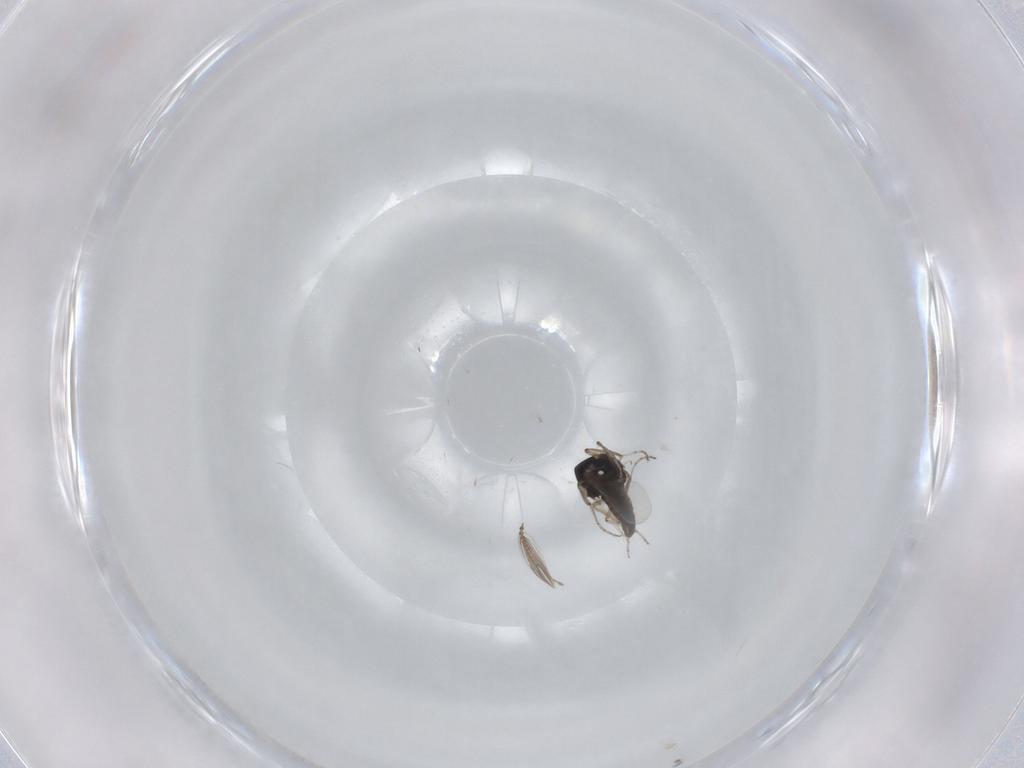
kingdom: Animalia
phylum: Arthropoda
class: Insecta
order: Diptera
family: Ceratopogonidae
